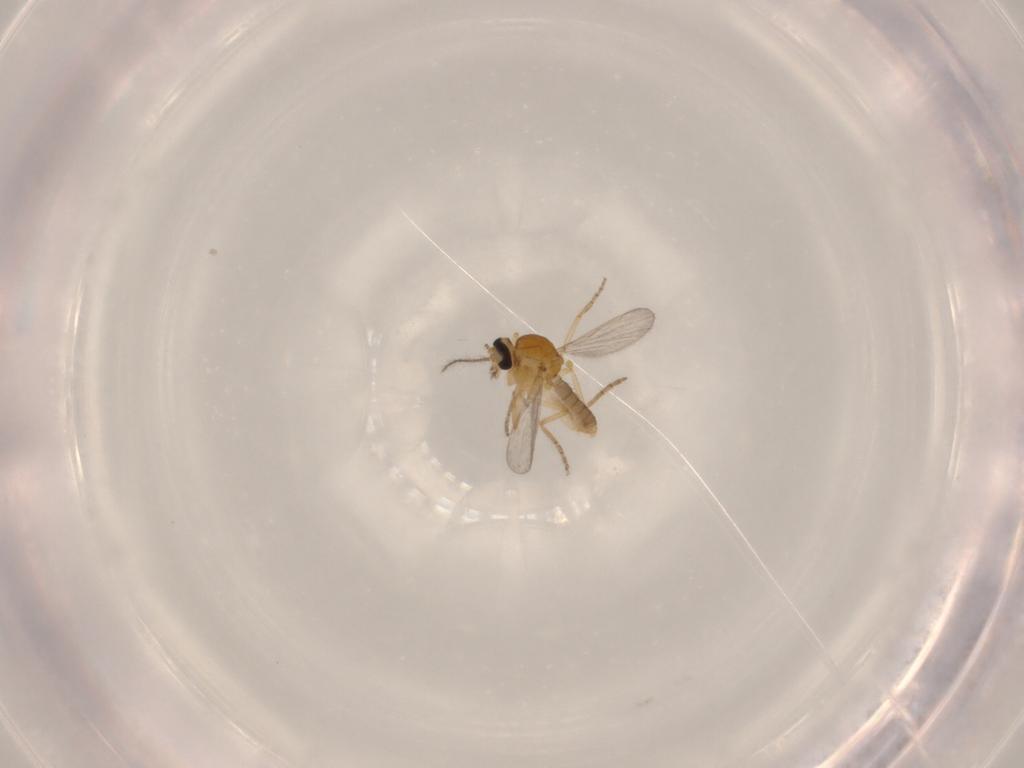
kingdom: Animalia
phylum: Arthropoda
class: Insecta
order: Diptera
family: Ceratopogonidae
